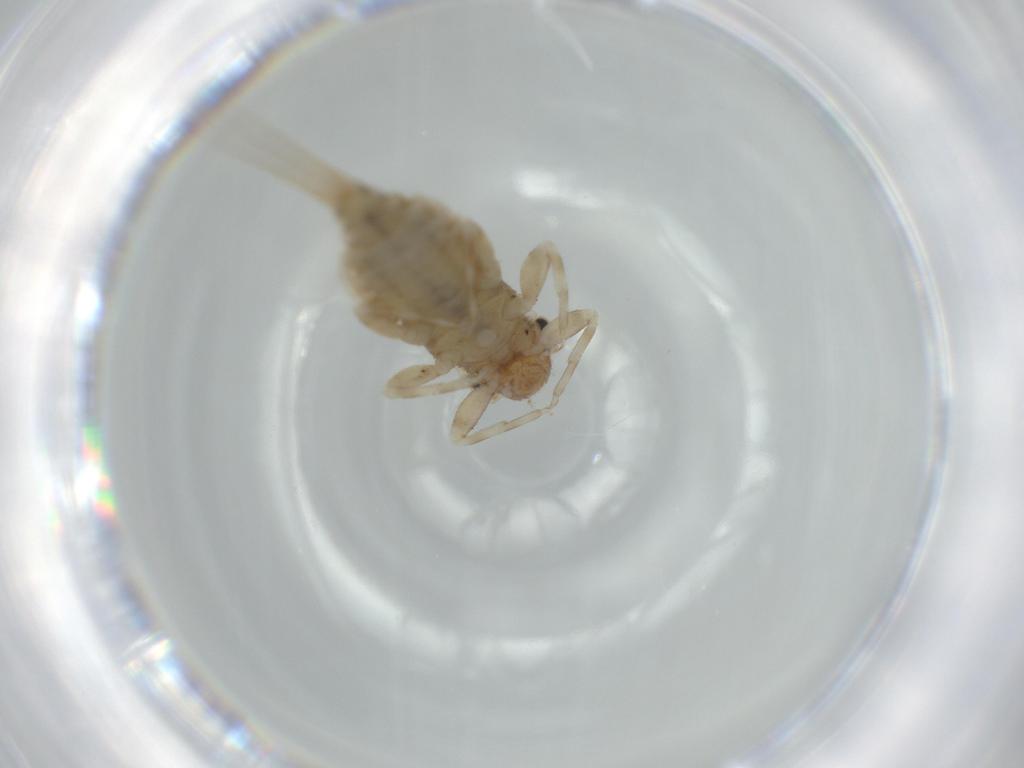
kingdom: Animalia
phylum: Arthropoda
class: Insecta
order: Ephemeroptera
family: Caenidae
